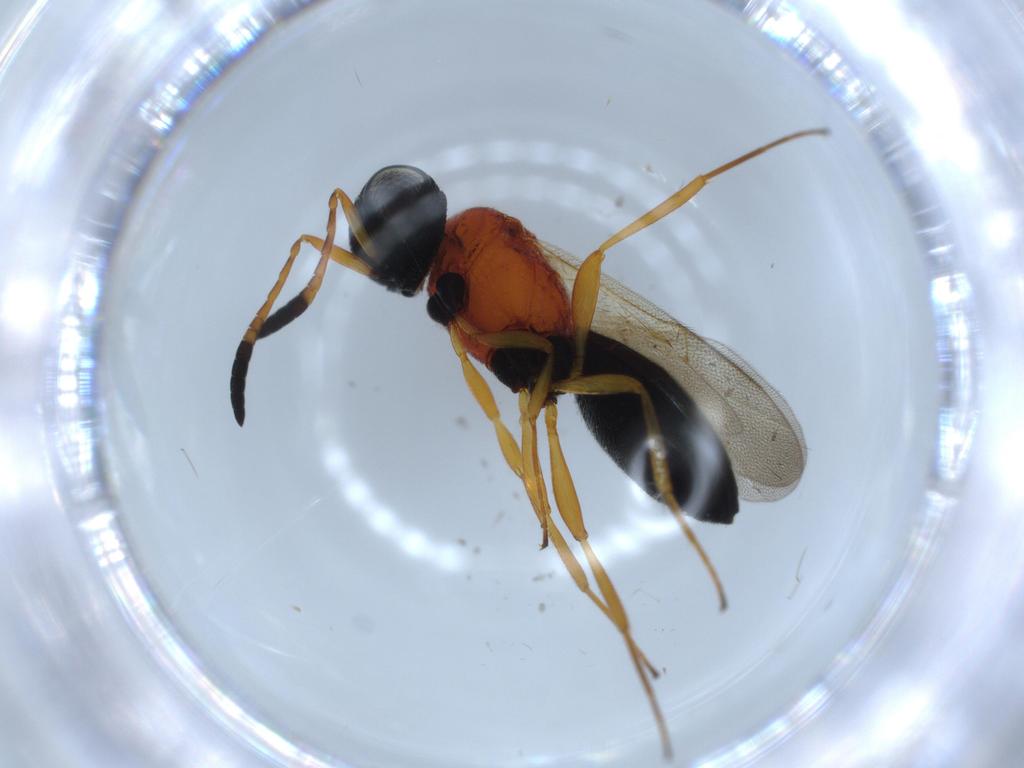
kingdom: Animalia
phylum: Arthropoda
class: Insecta
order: Hymenoptera
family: Scelionidae
